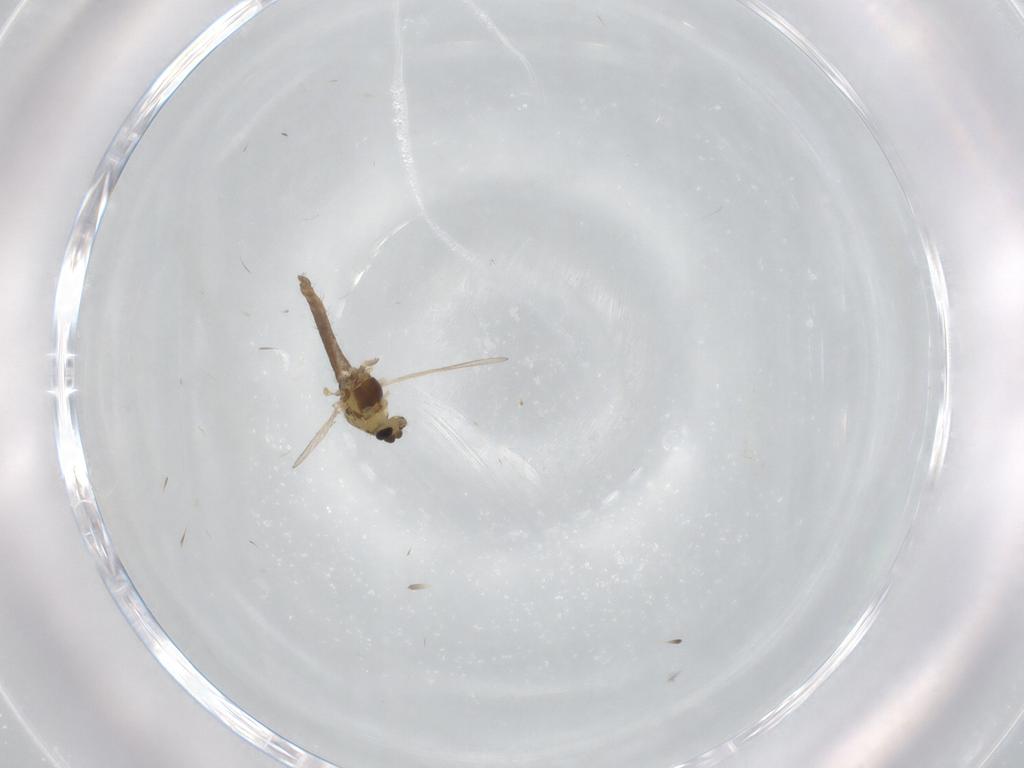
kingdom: Animalia
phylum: Arthropoda
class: Insecta
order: Diptera
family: Chironomidae
